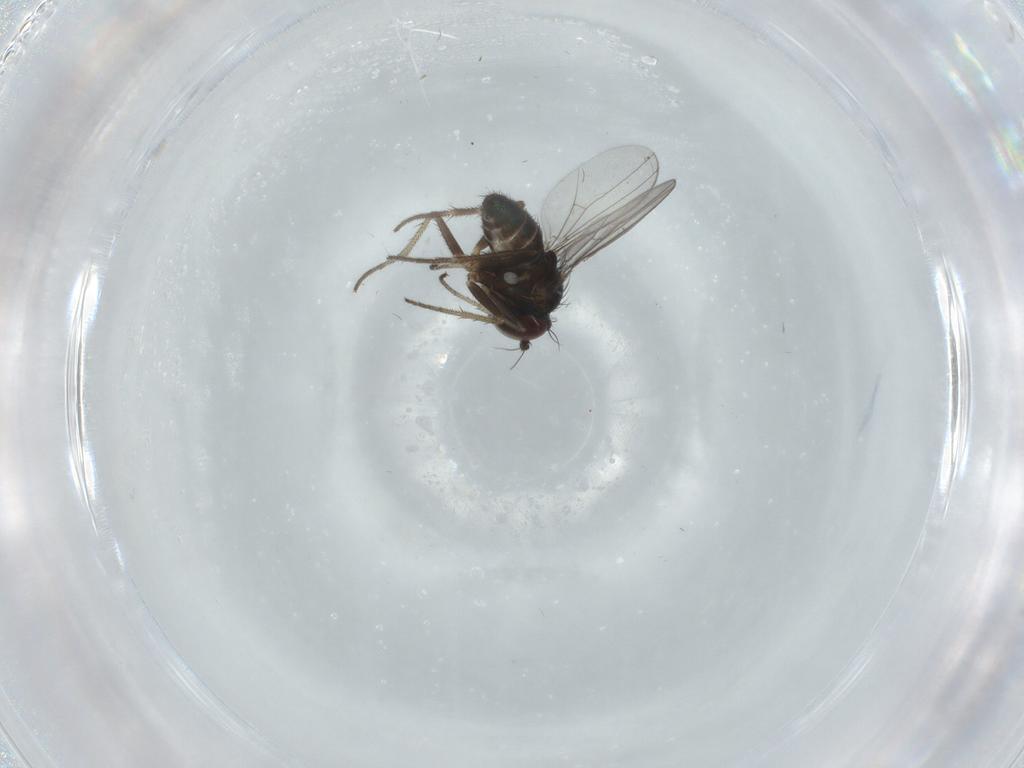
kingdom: Animalia
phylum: Arthropoda
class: Insecta
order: Diptera
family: Dolichopodidae
